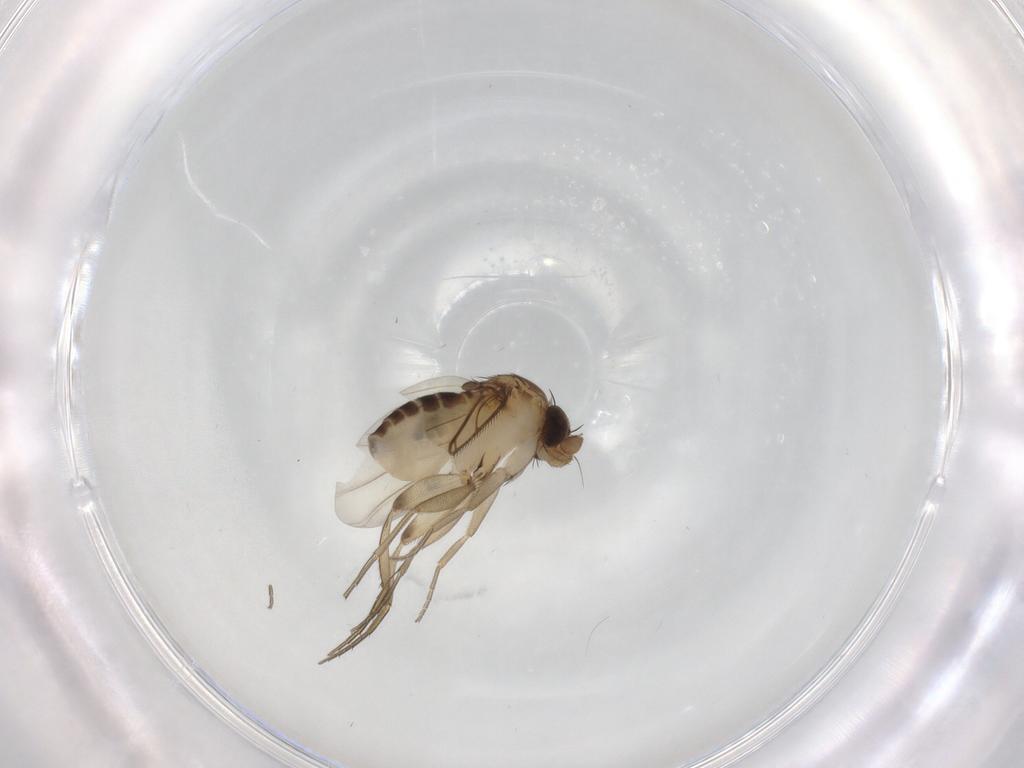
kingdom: Animalia
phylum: Arthropoda
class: Insecta
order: Diptera
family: Phoridae
